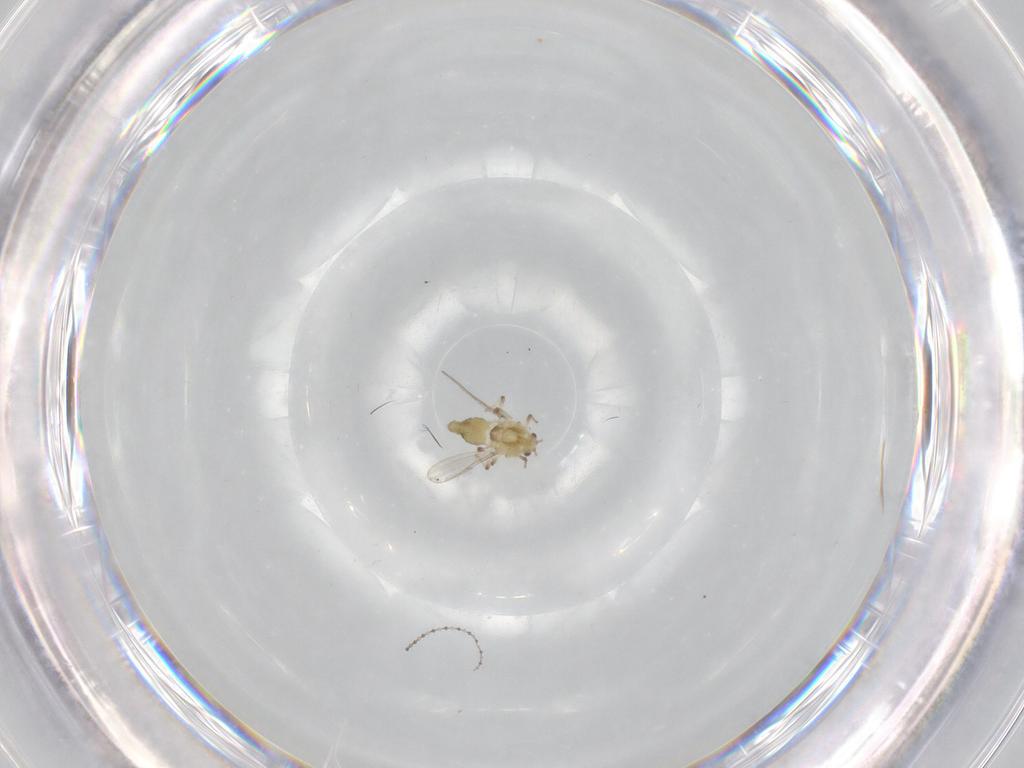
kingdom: Animalia
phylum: Arthropoda
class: Insecta
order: Diptera
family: Chironomidae
